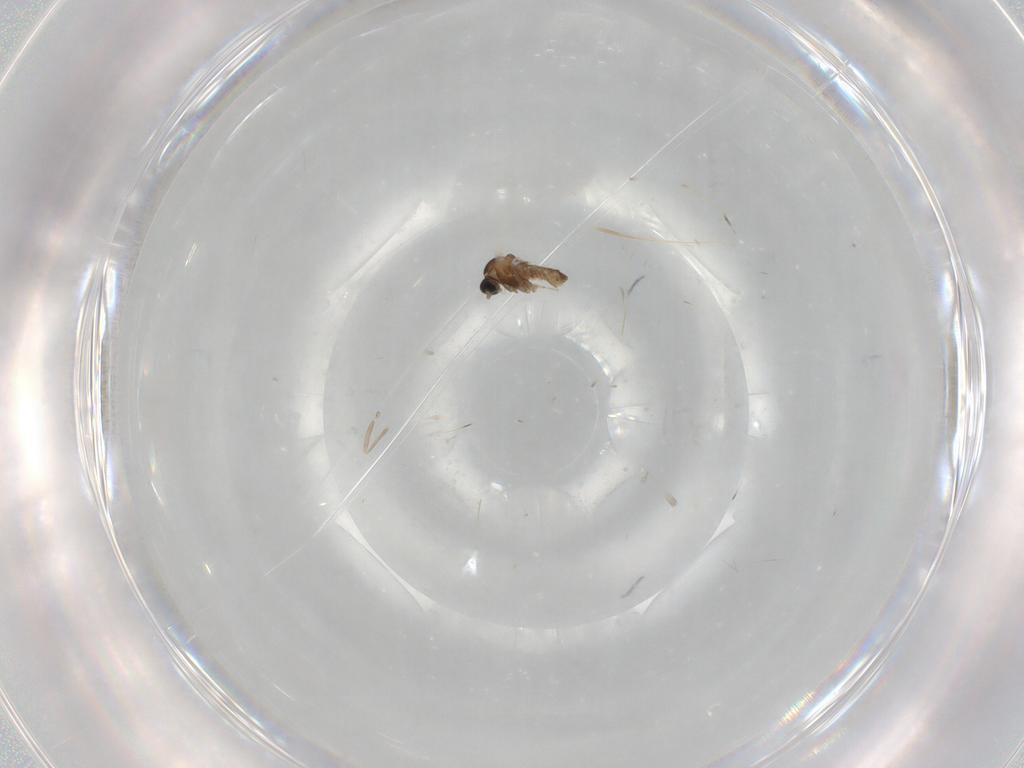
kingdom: Animalia
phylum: Arthropoda
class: Insecta
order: Diptera
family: Cecidomyiidae
